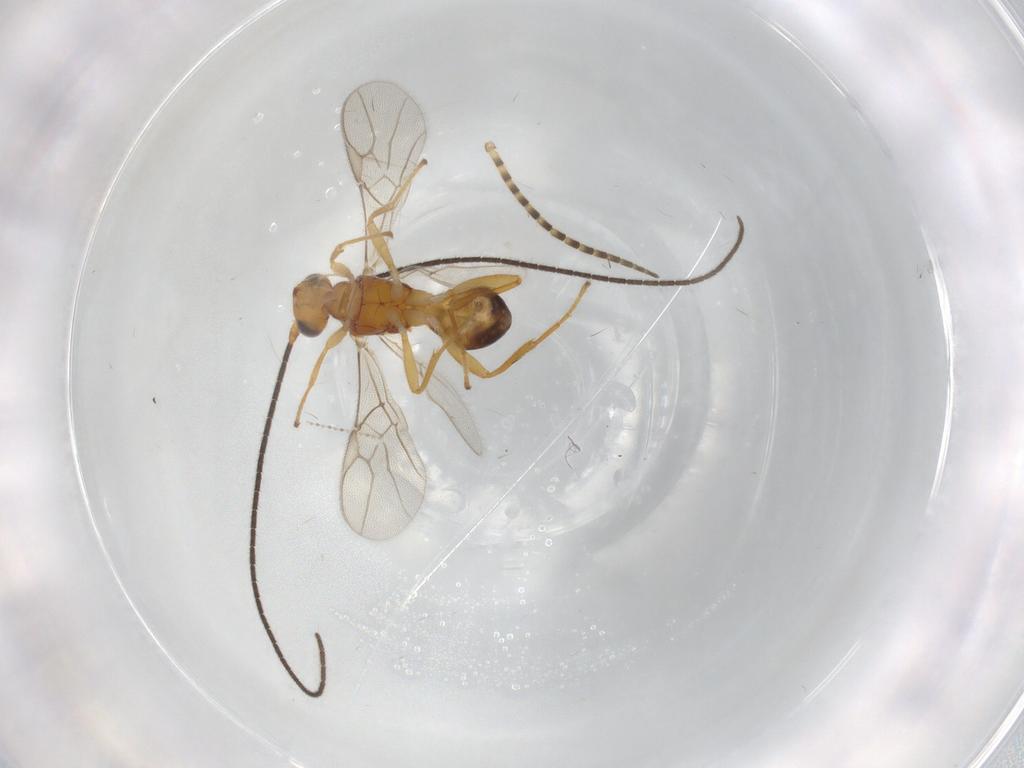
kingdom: Animalia
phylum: Arthropoda
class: Insecta
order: Hymenoptera
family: Braconidae
